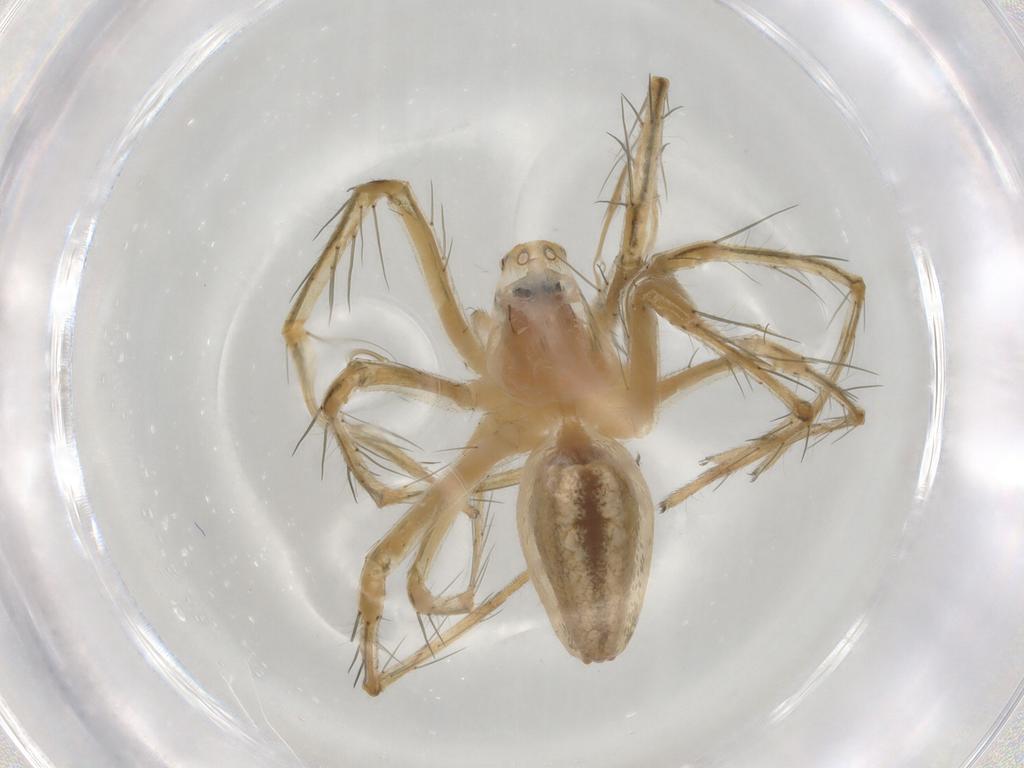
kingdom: Animalia
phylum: Arthropoda
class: Arachnida
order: Araneae
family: Oxyopidae
